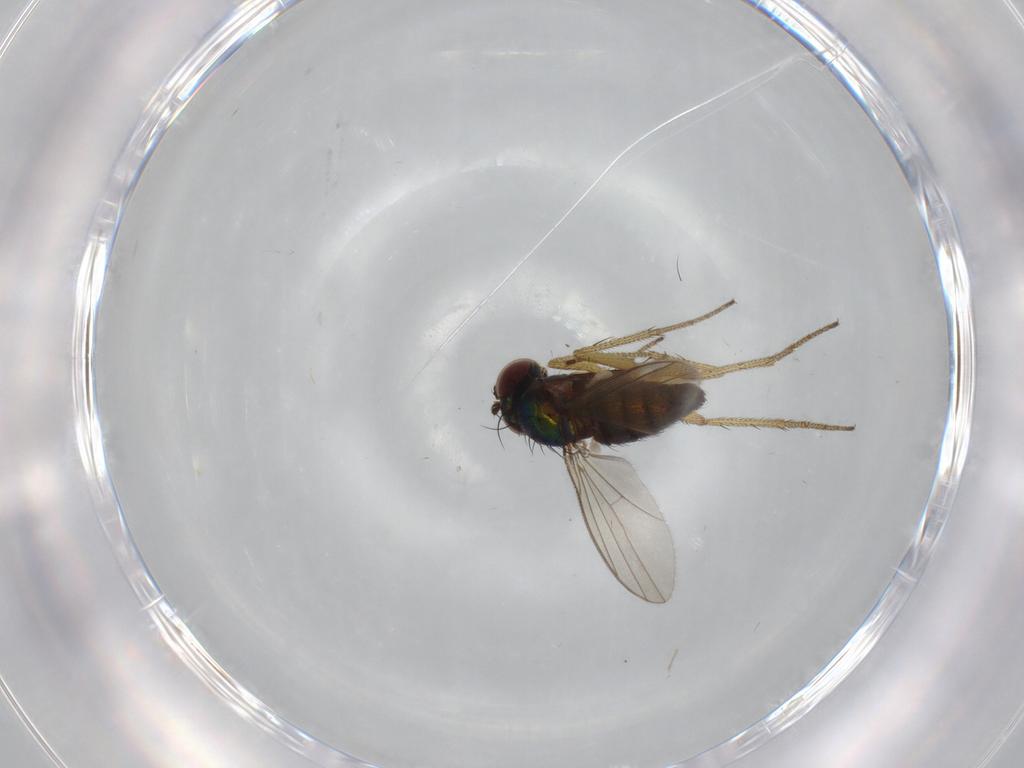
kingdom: Animalia
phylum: Arthropoda
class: Insecta
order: Diptera
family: Dolichopodidae
